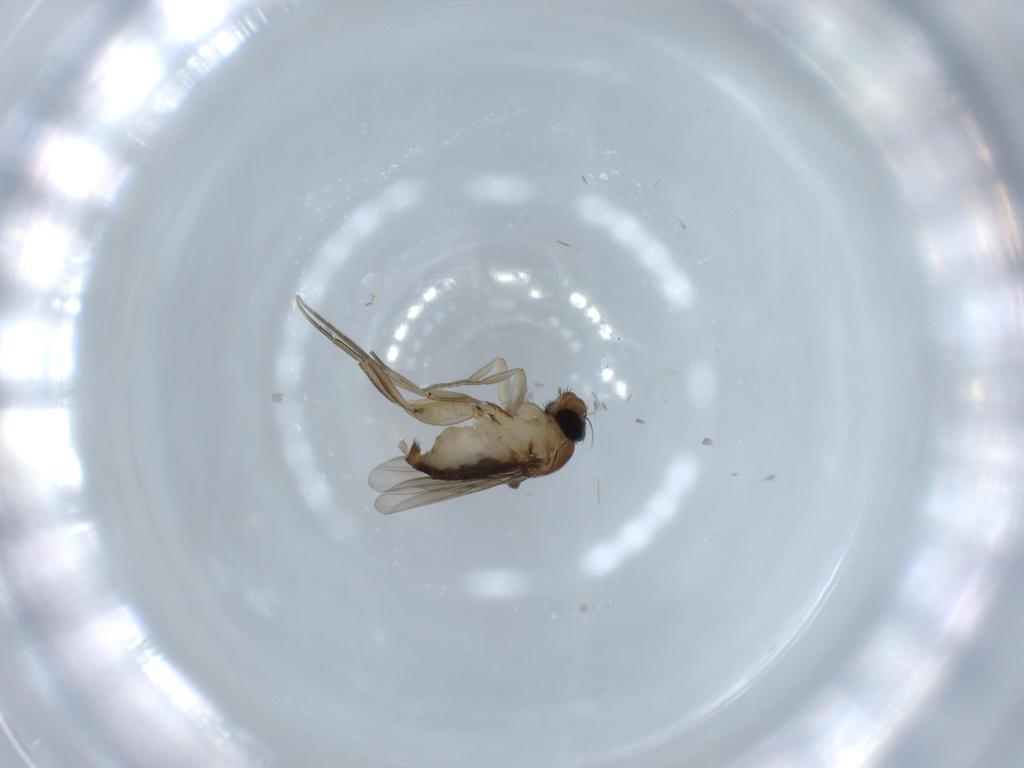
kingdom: Animalia
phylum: Arthropoda
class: Insecta
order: Diptera
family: Phoridae
